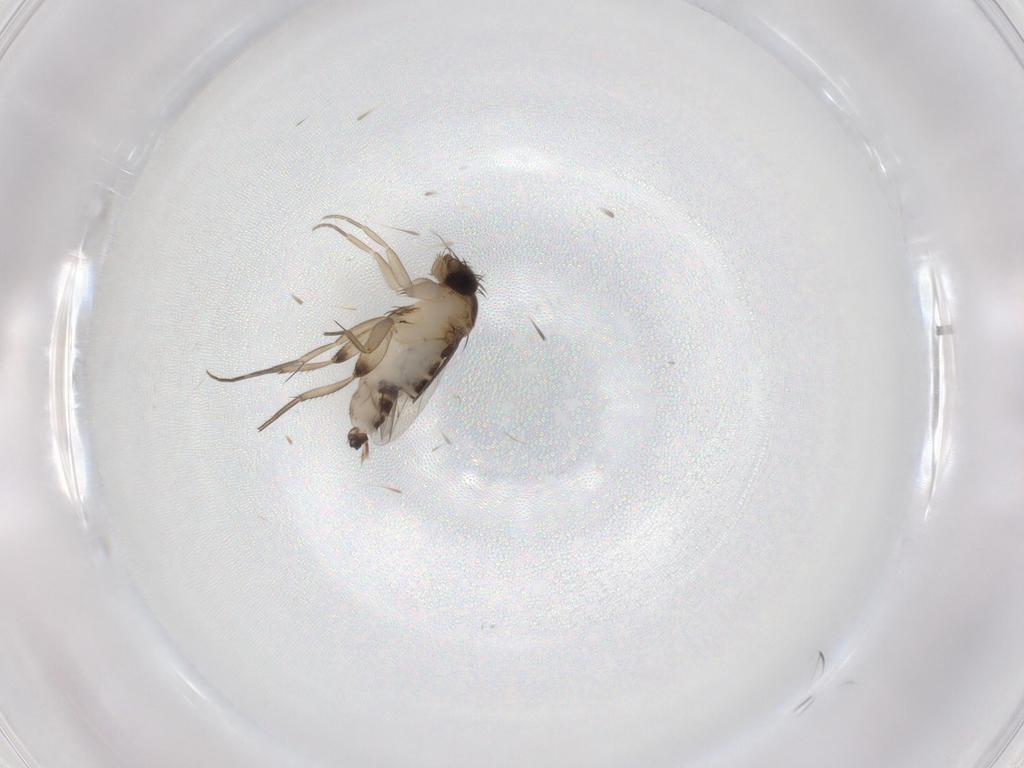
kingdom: Animalia
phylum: Arthropoda
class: Insecta
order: Diptera
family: Phoridae
